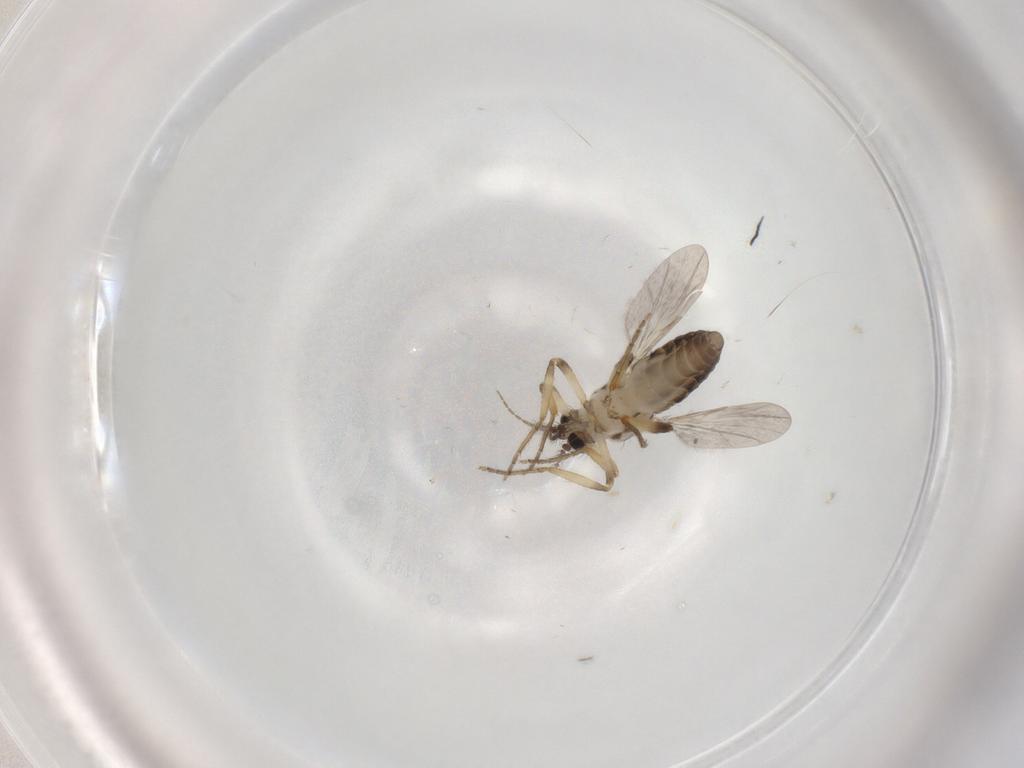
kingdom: Animalia
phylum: Arthropoda
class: Insecta
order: Diptera
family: Ceratopogonidae
